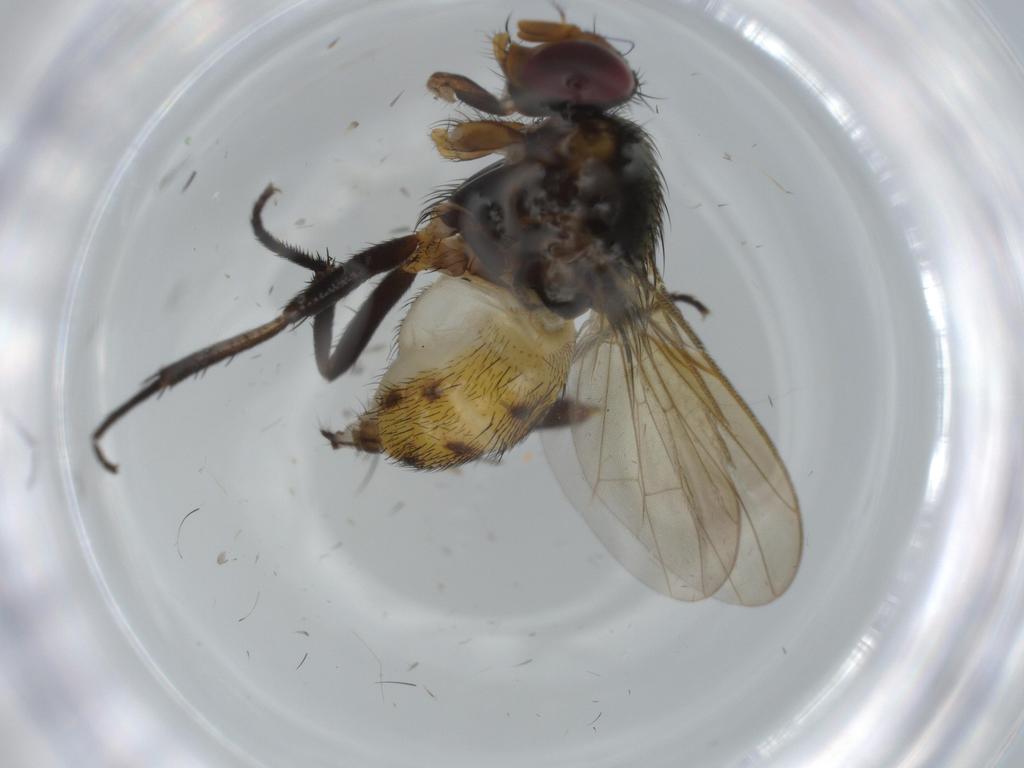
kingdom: Animalia
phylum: Arthropoda
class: Insecta
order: Diptera
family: Anthomyiidae
